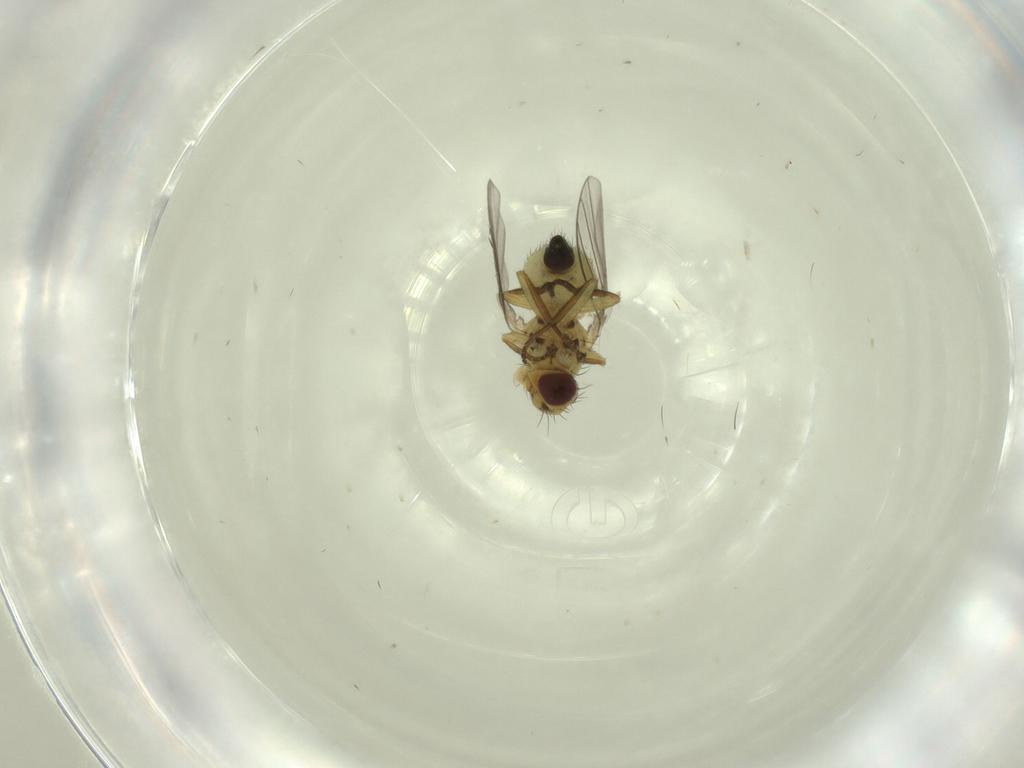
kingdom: Animalia
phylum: Arthropoda
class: Insecta
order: Diptera
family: Agromyzidae
